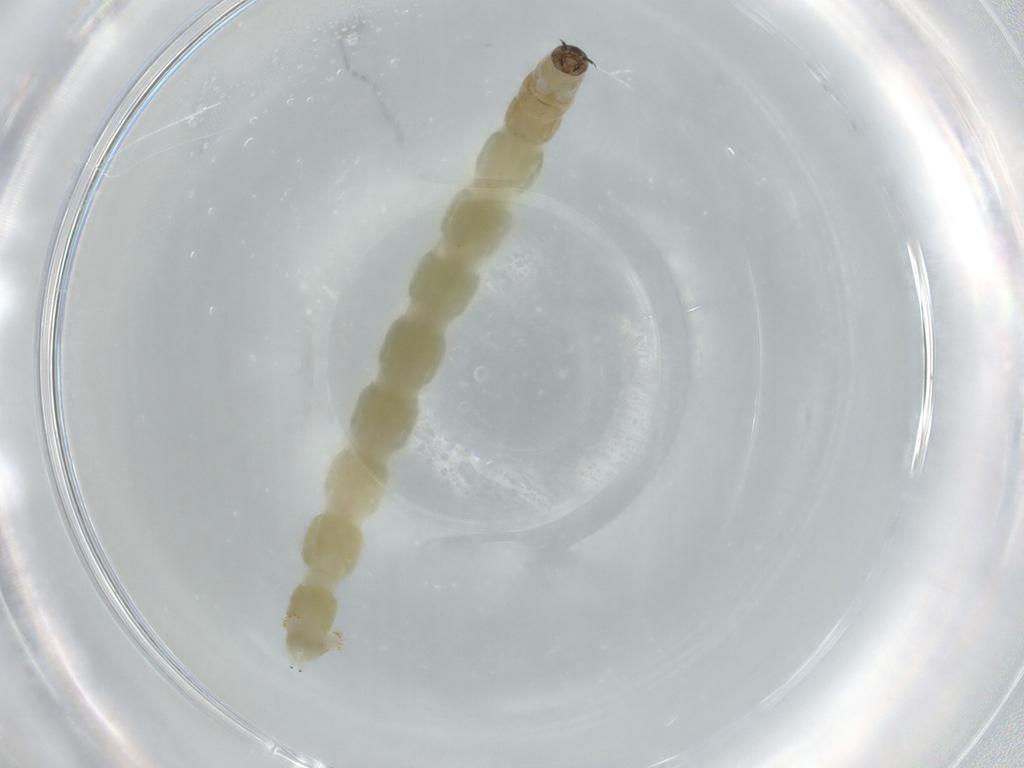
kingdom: Animalia
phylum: Arthropoda
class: Insecta
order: Diptera
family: Chironomidae
